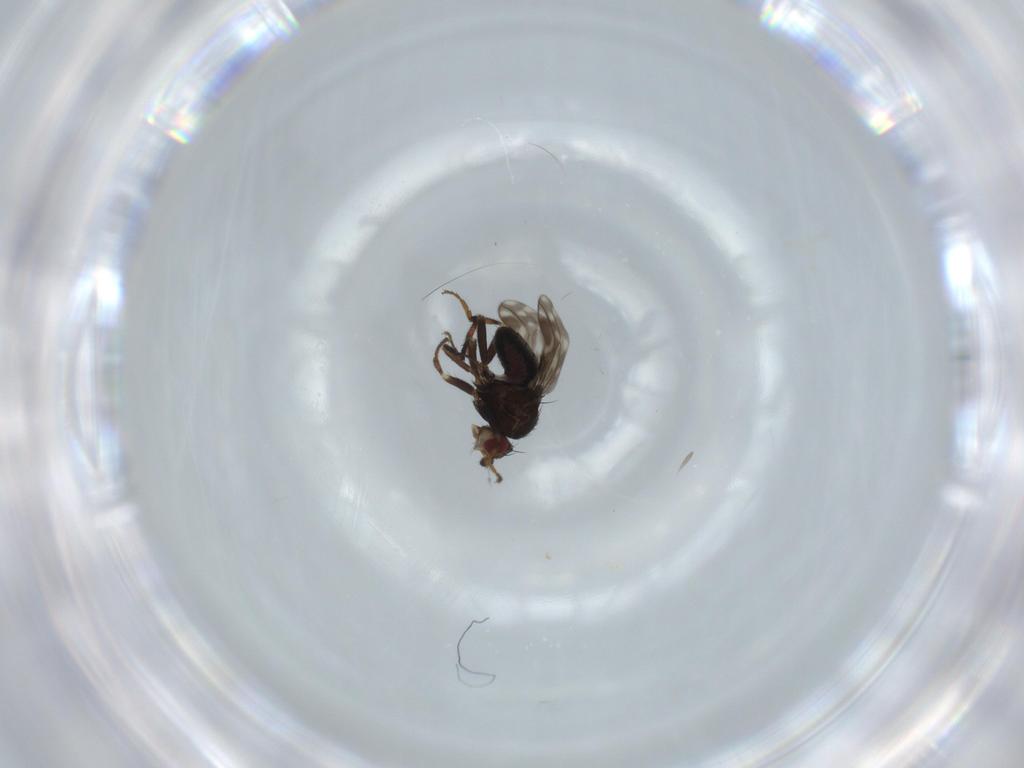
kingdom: Animalia
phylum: Arthropoda
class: Insecta
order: Diptera
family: Sphaeroceridae
